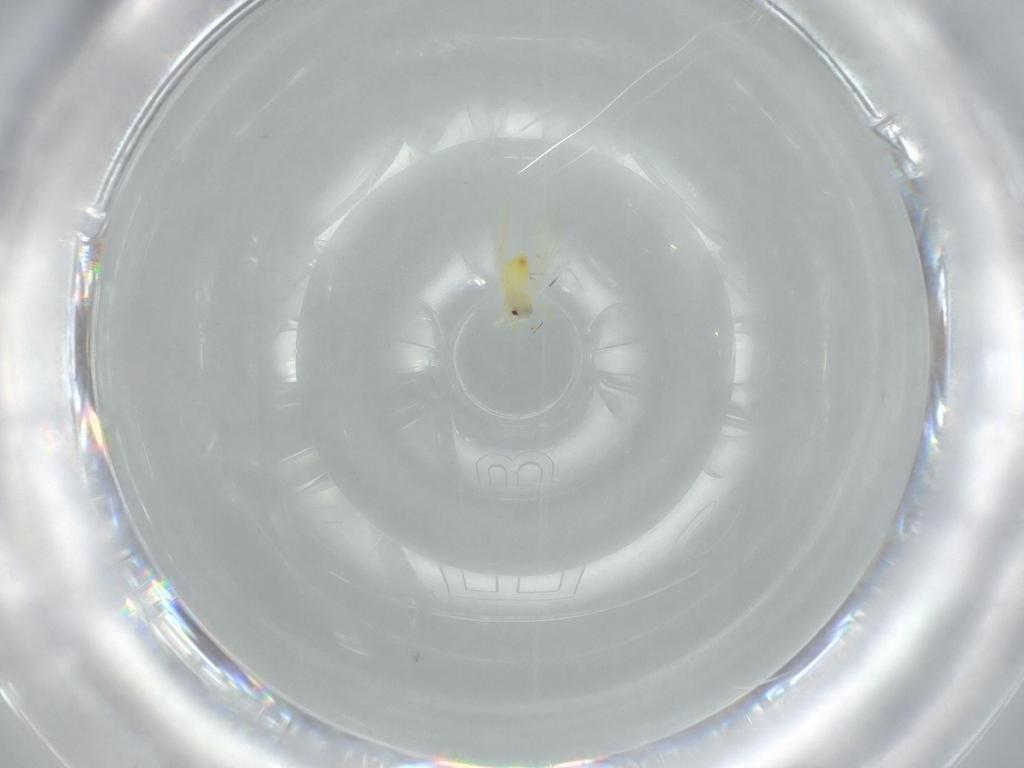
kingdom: Animalia
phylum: Arthropoda
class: Insecta
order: Hemiptera
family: Aleyrodidae
